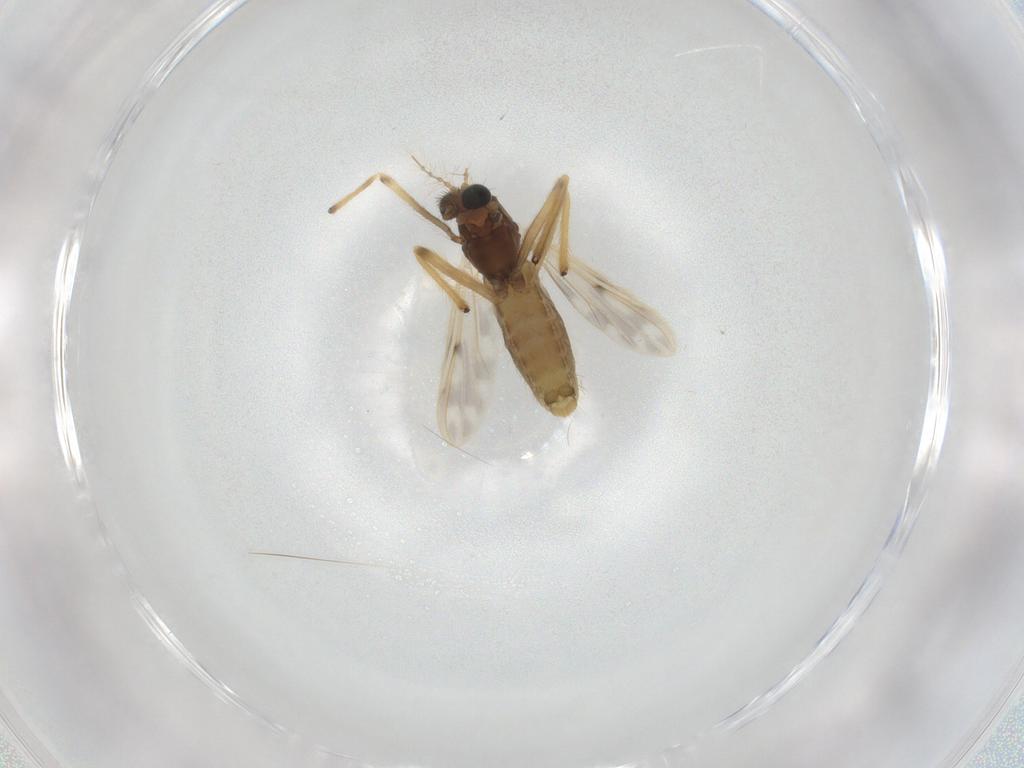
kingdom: Animalia
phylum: Arthropoda
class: Insecta
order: Diptera
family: Chironomidae
